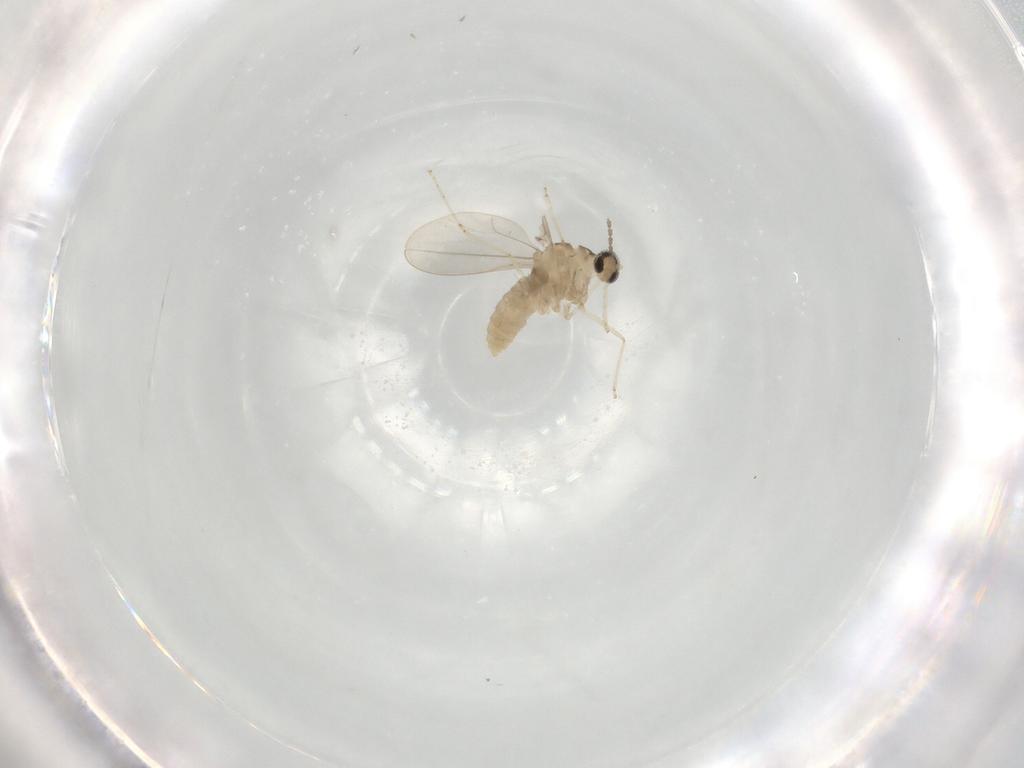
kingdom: Animalia
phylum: Arthropoda
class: Insecta
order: Diptera
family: Cecidomyiidae
